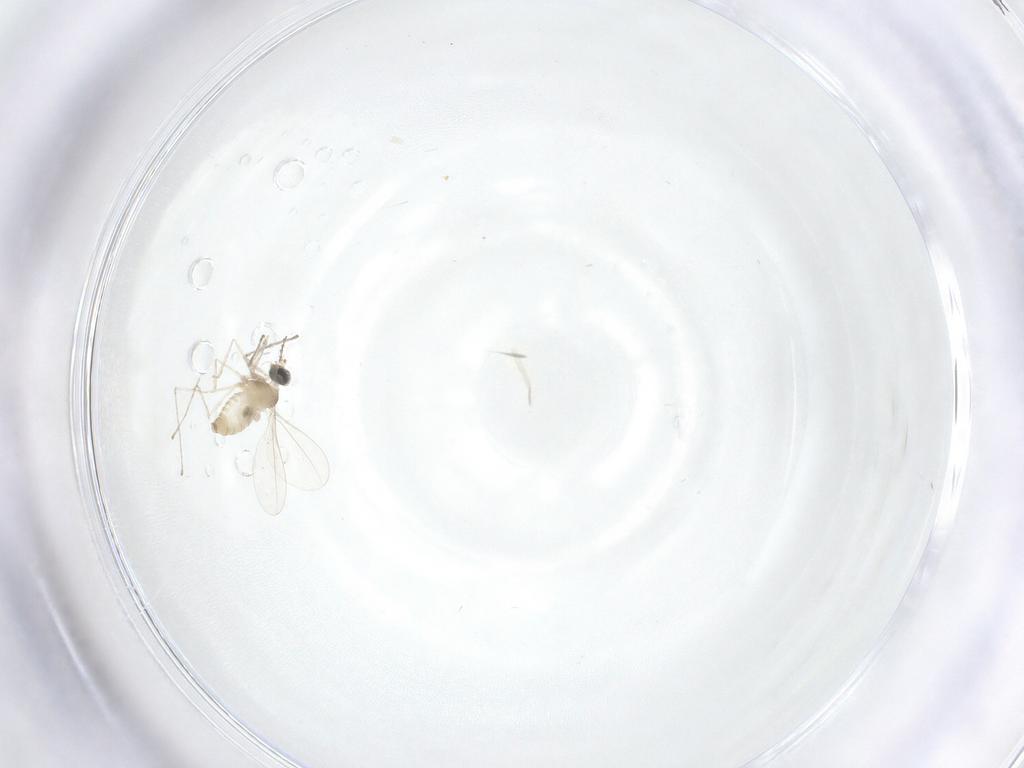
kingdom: Animalia
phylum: Arthropoda
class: Insecta
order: Diptera
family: Cecidomyiidae
